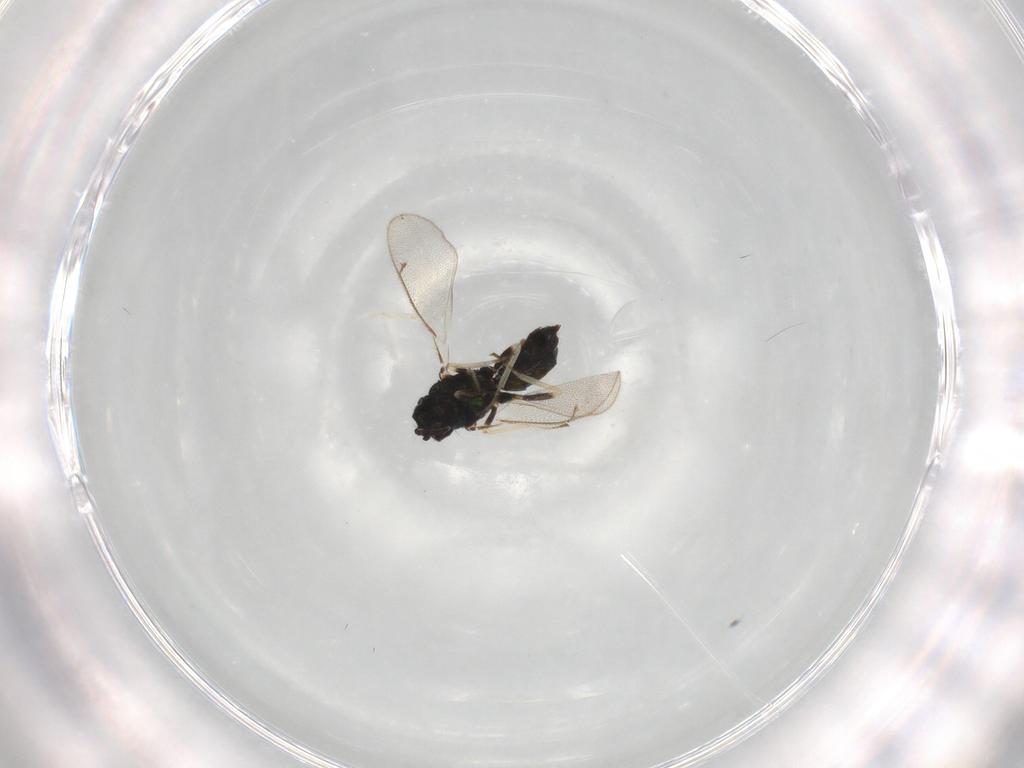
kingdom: Animalia
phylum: Arthropoda
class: Insecta
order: Hymenoptera
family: Eulophidae
